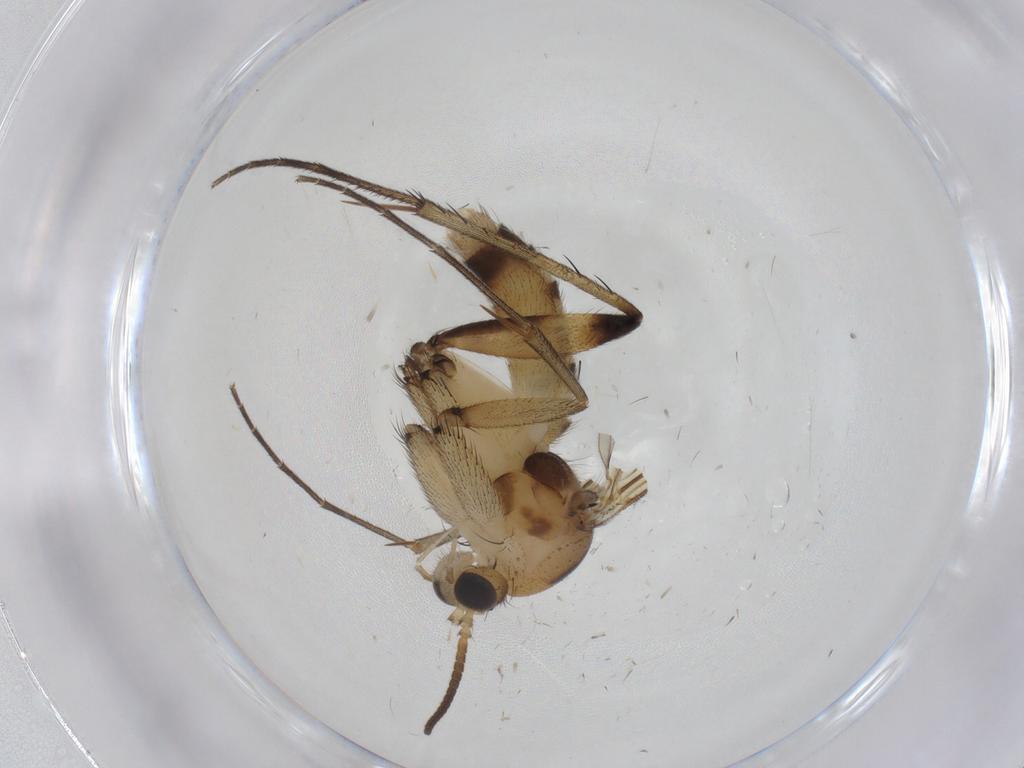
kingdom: Animalia
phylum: Arthropoda
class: Insecta
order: Diptera
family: Mycetophilidae
